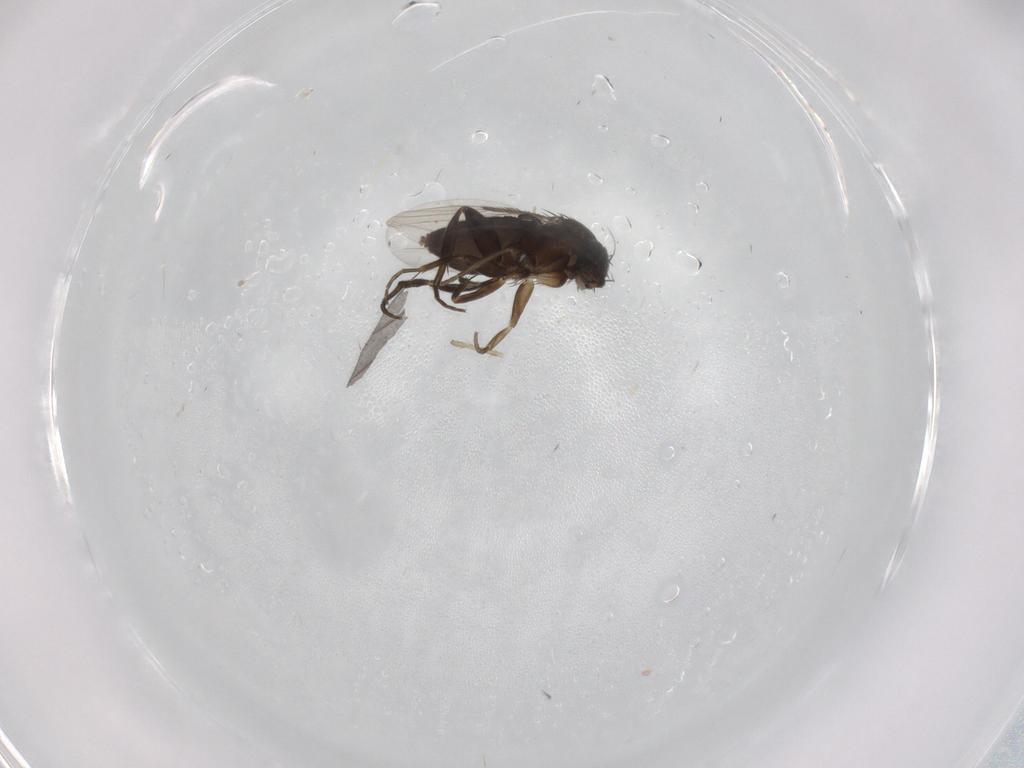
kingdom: Animalia
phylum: Arthropoda
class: Insecta
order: Diptera
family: Phoridae
